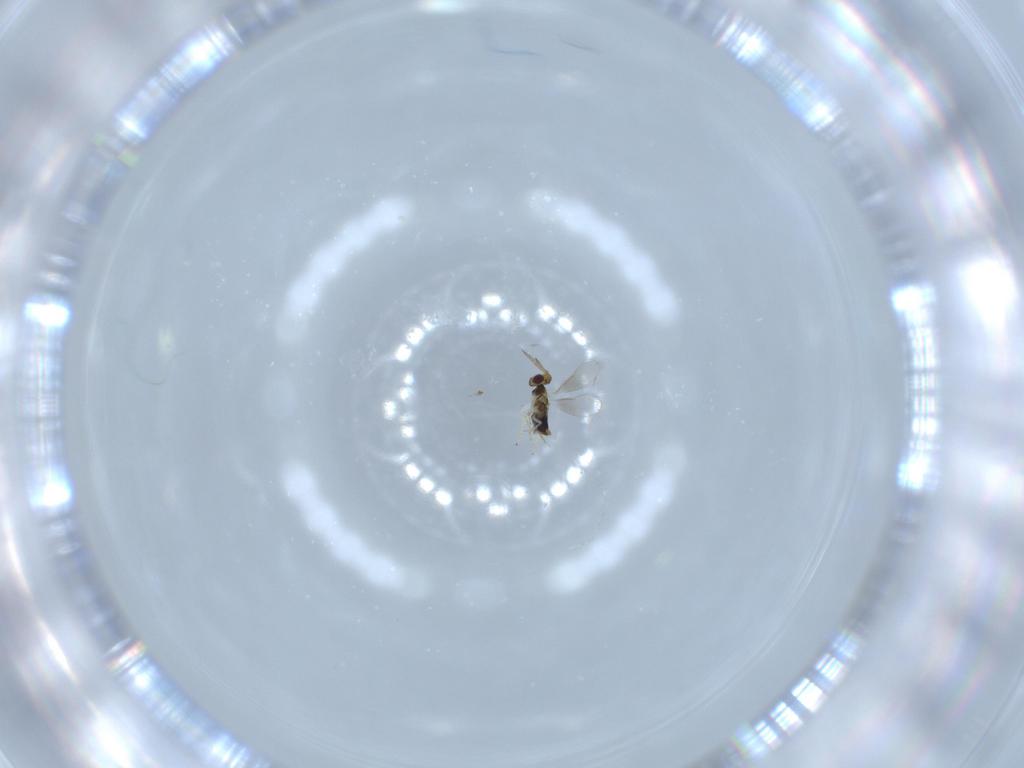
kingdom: Animalia
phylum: Arthropoda
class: Insecta
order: Hymenoptera
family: Aphelinidae
